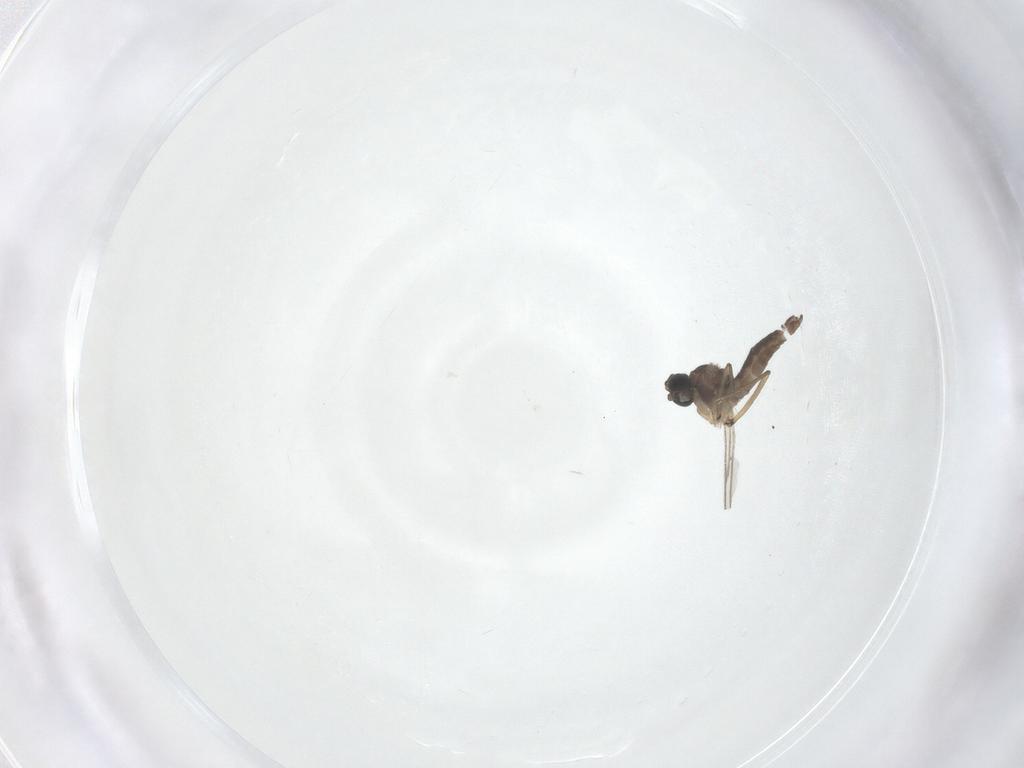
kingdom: Animalia
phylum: Arthropoda
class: Insecta
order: Diptera
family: Sciaridae
